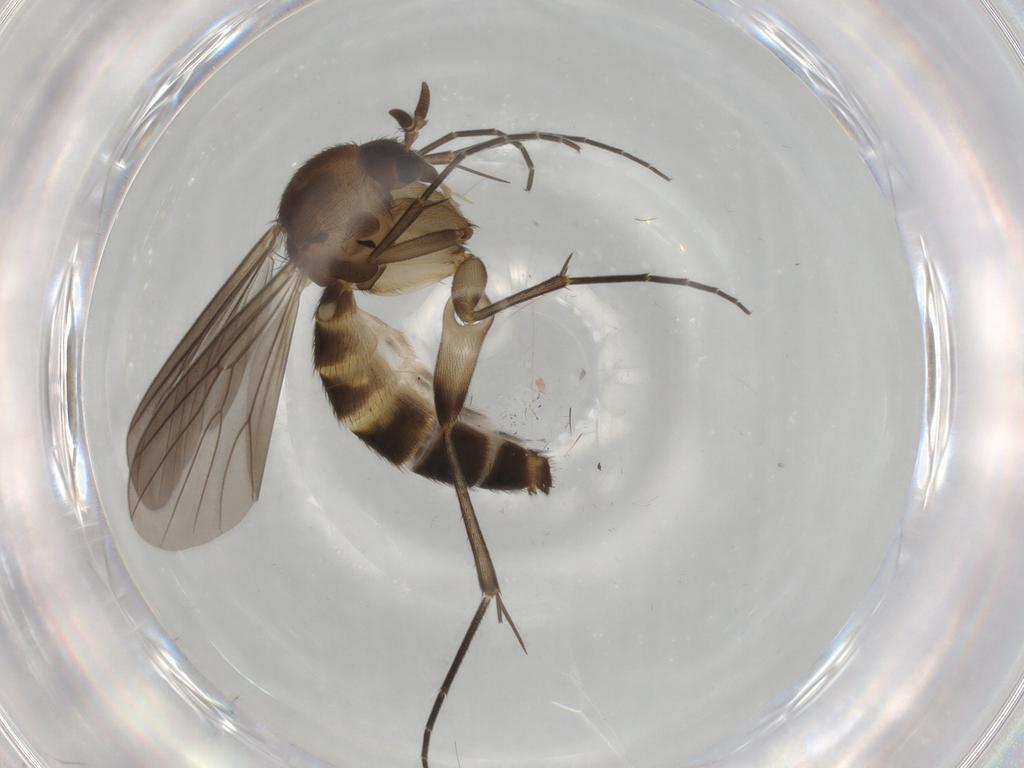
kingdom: Animalia
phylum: Arthropoda
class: Insecta
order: Diptera
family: Mycetophilidae
